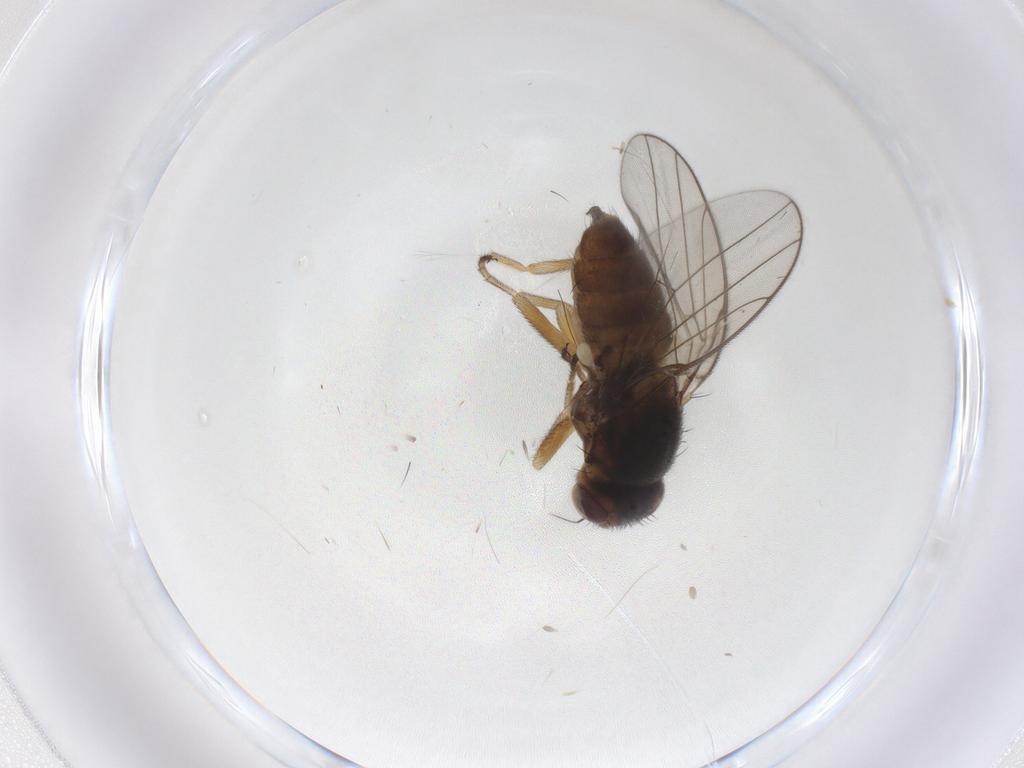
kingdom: Animalia
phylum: Arthropoda
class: Insecta
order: Diptera
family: Chloropidae
